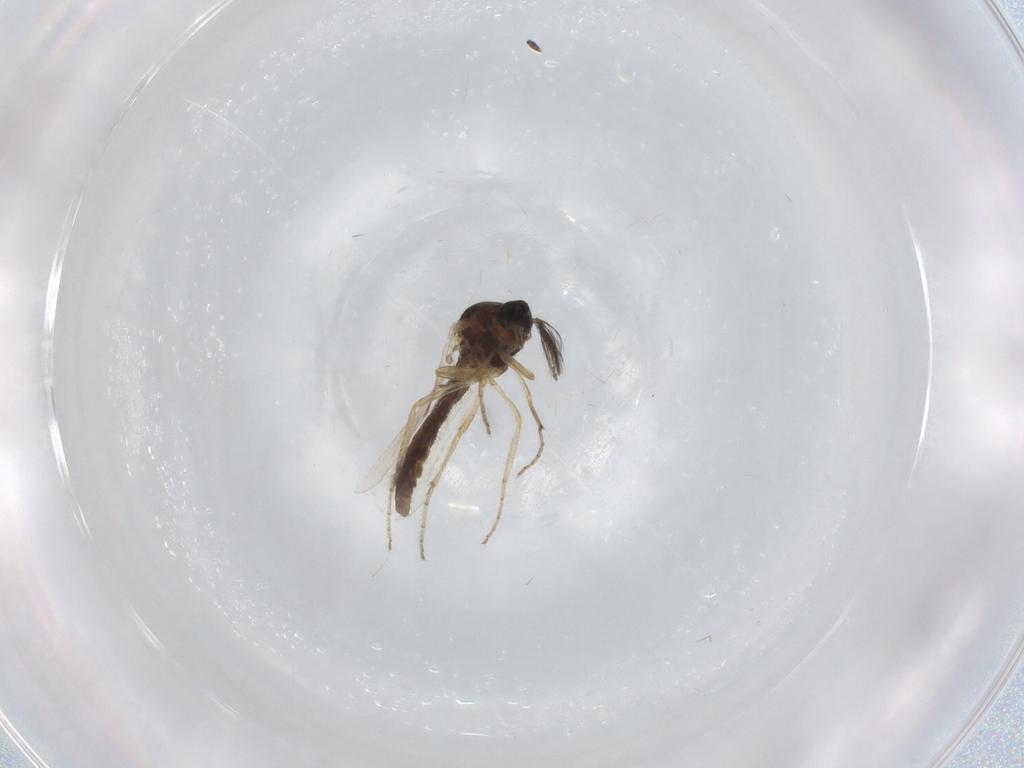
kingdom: Animalia
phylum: Arthropoda
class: Insecta
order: Diptera
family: Ceratopogonidae
